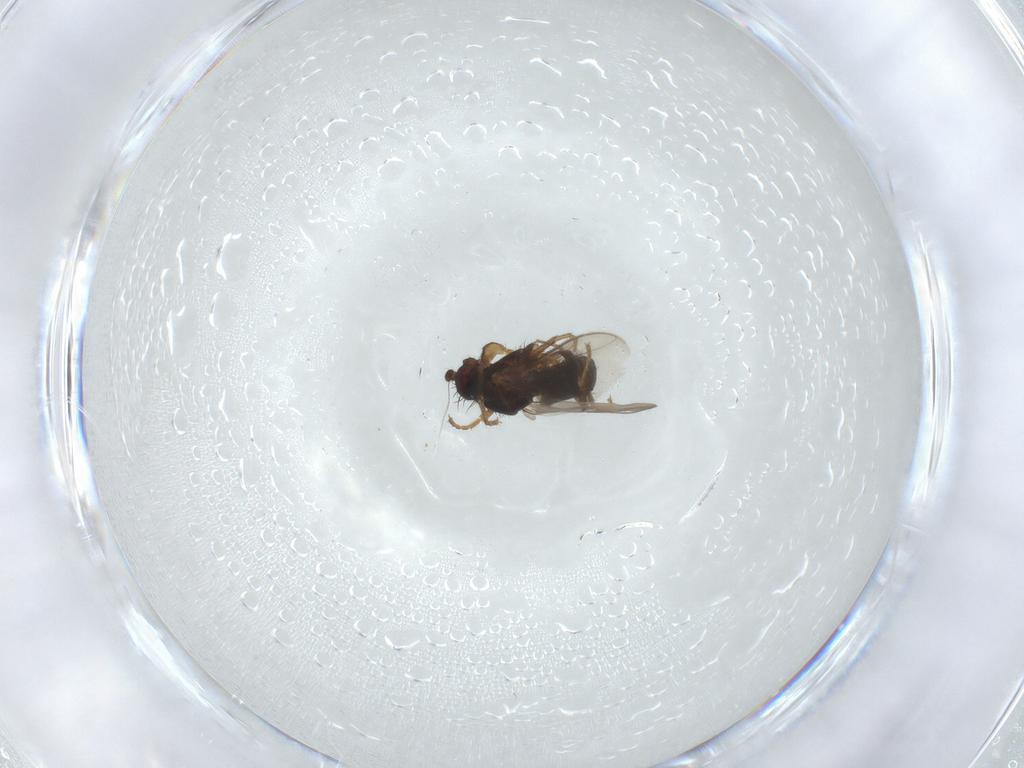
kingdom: Animalia
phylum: Arthropoda
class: Insecta
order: Diptera
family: Sphaeroceridae
